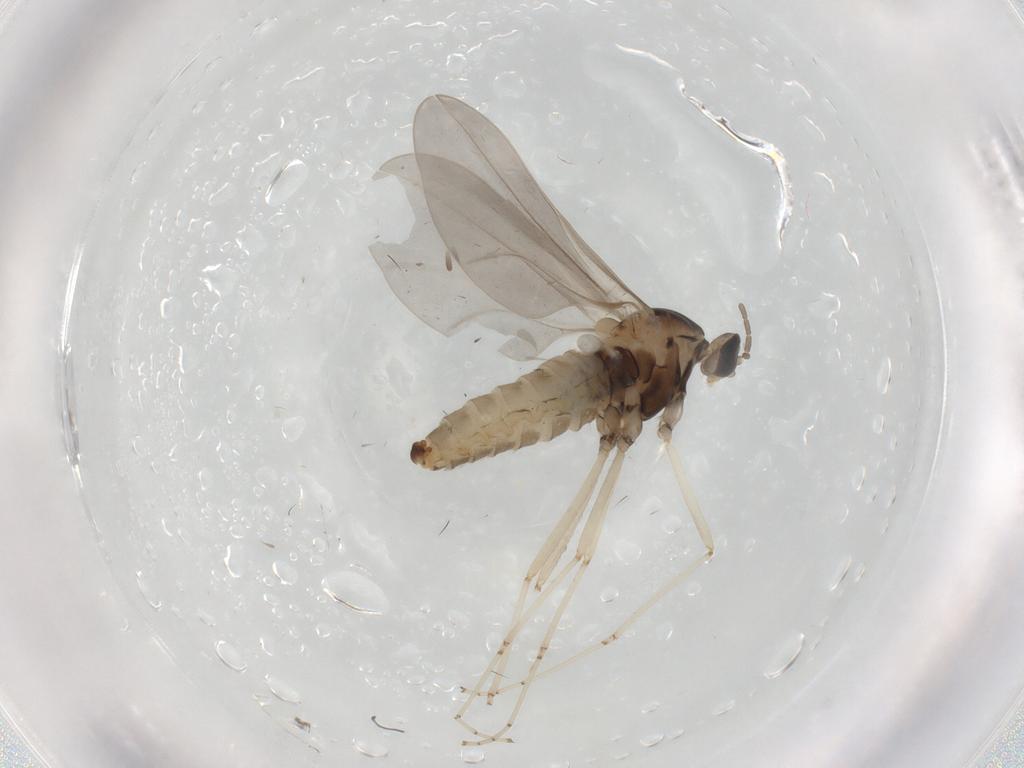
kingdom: Animalia
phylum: Arthropoda
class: Insecta
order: Diptera
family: Cecidomyiidae
